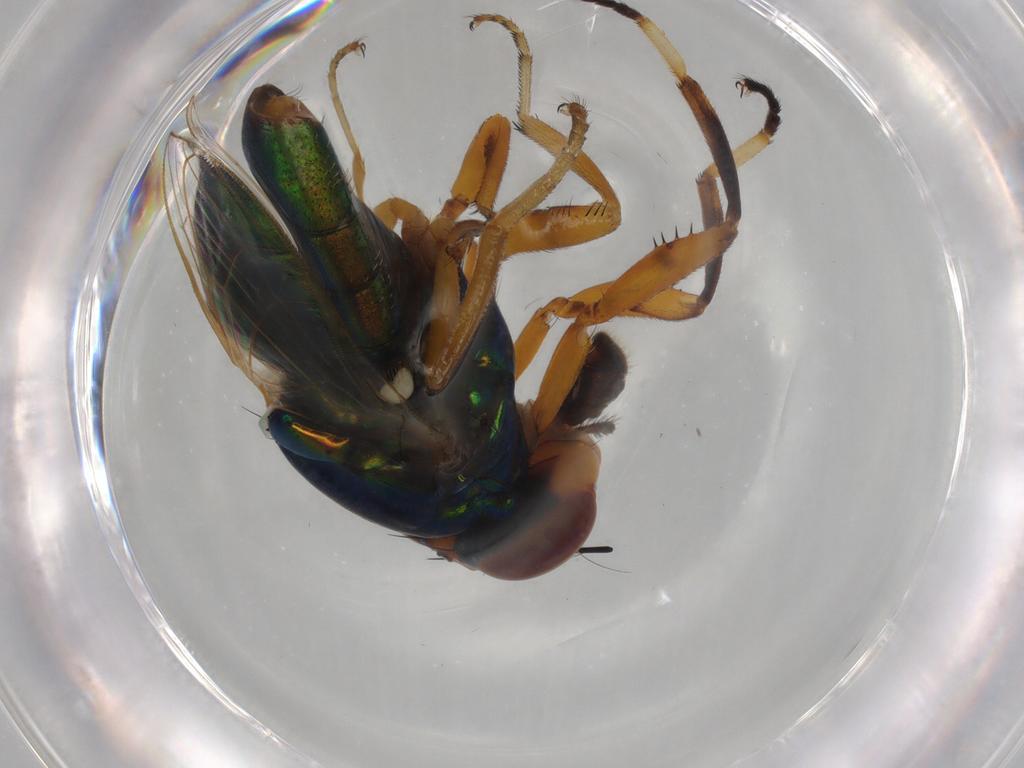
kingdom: Animalia
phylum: Arthropoda
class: Insecta
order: Diptera
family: Ulidiidae
